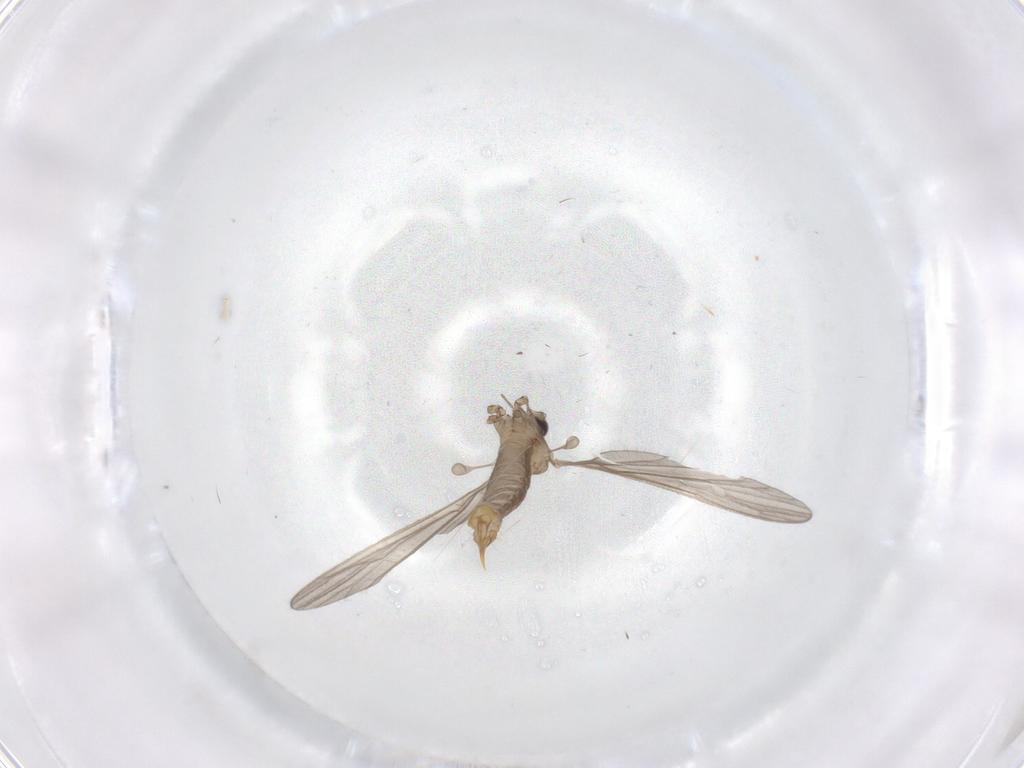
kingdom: Animalia
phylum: Arthropoda
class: Insecta
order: Diptera
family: Limoniidae
